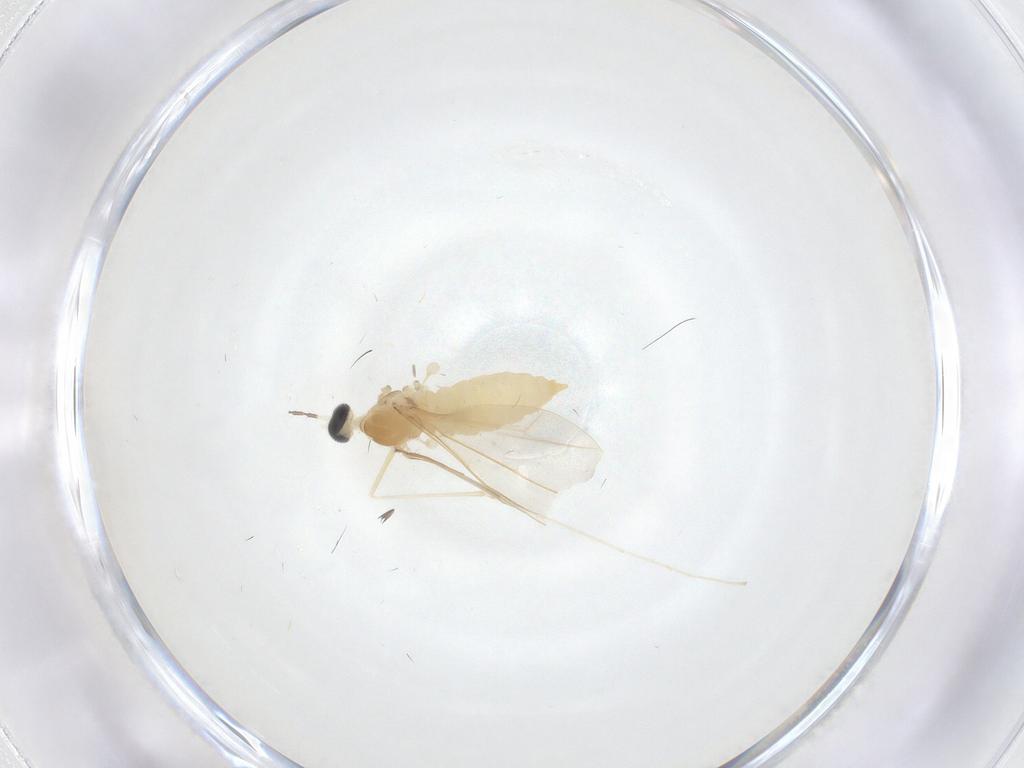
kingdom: Animalia
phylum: Arthropoda
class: Insecta
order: Diptera
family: Cecidomyiidae
